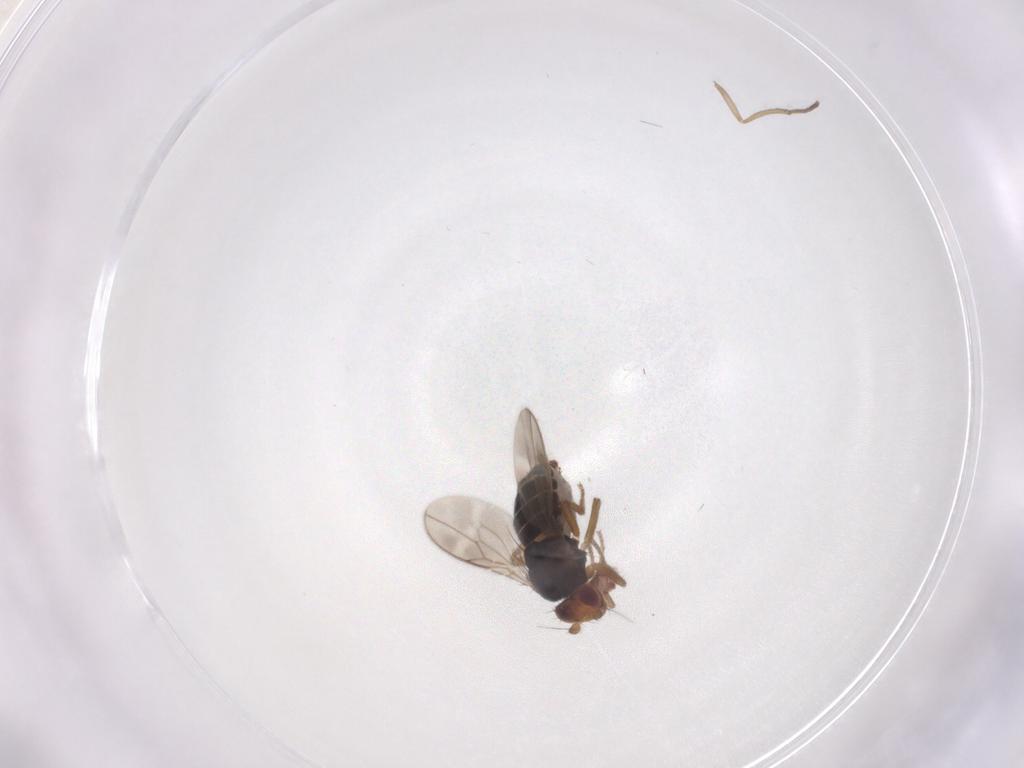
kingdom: Animalia
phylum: Arthropoda
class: Insecta
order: Diptera
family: Sphaeroceridae
